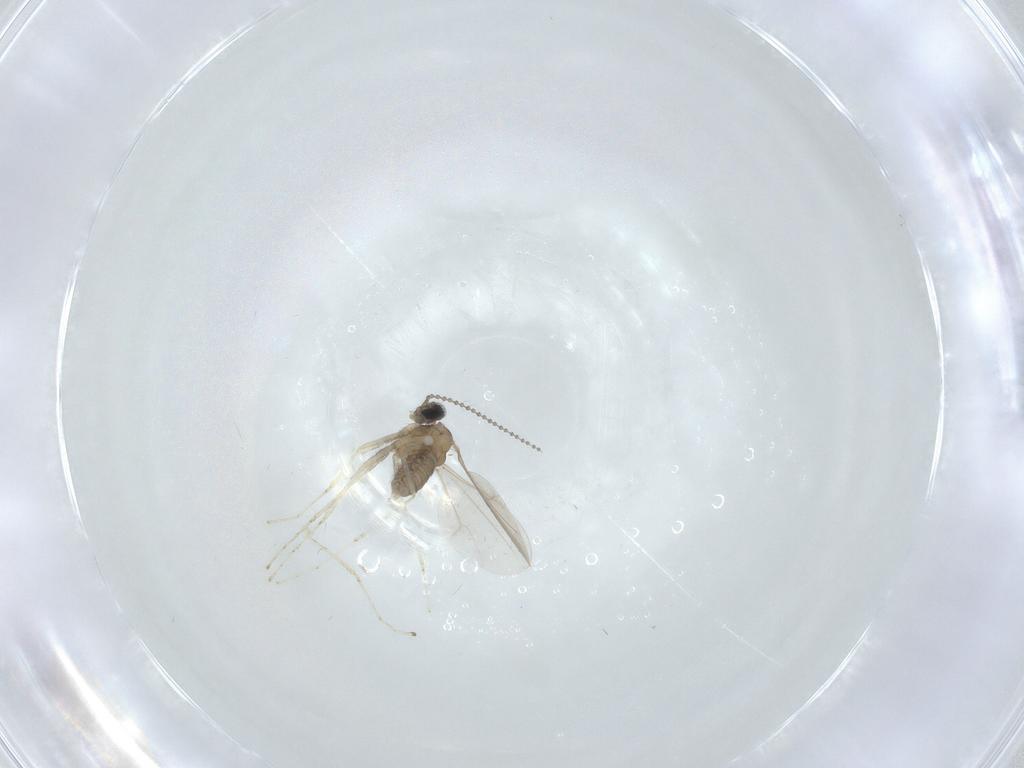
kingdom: Animalia
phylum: Arthropoda
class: Insecta
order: Diptera
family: Cecidomyiidae
